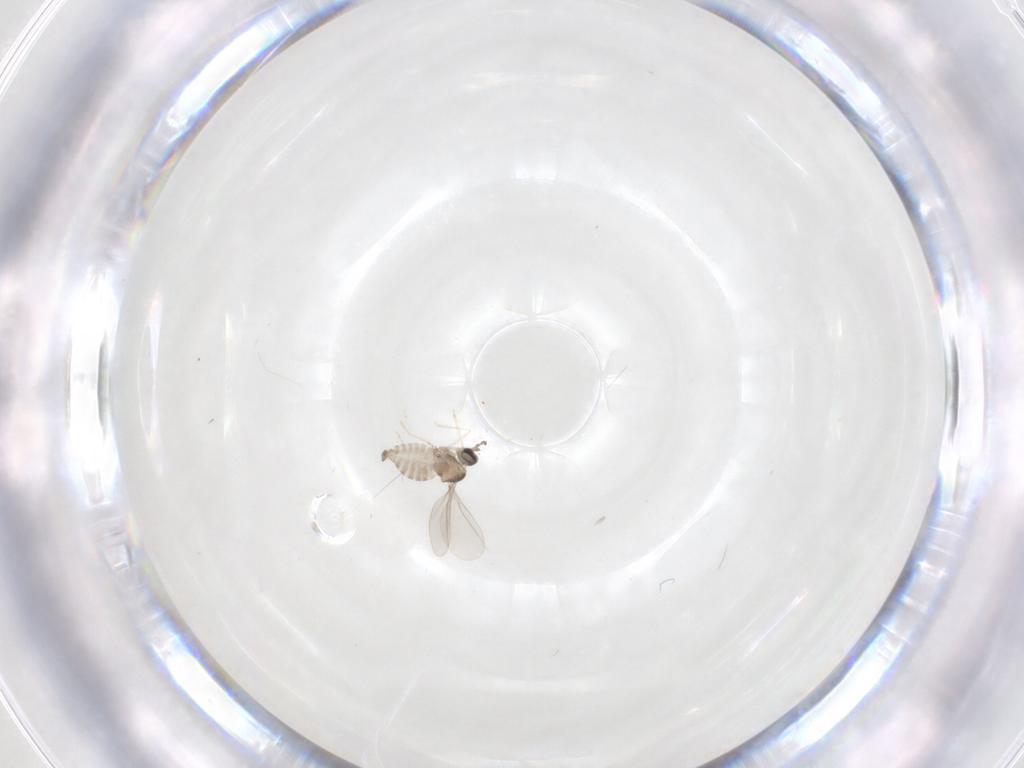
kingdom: Animalia
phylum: Arthropoda
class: Insecta
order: Diptera
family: Cecidomyiidae
